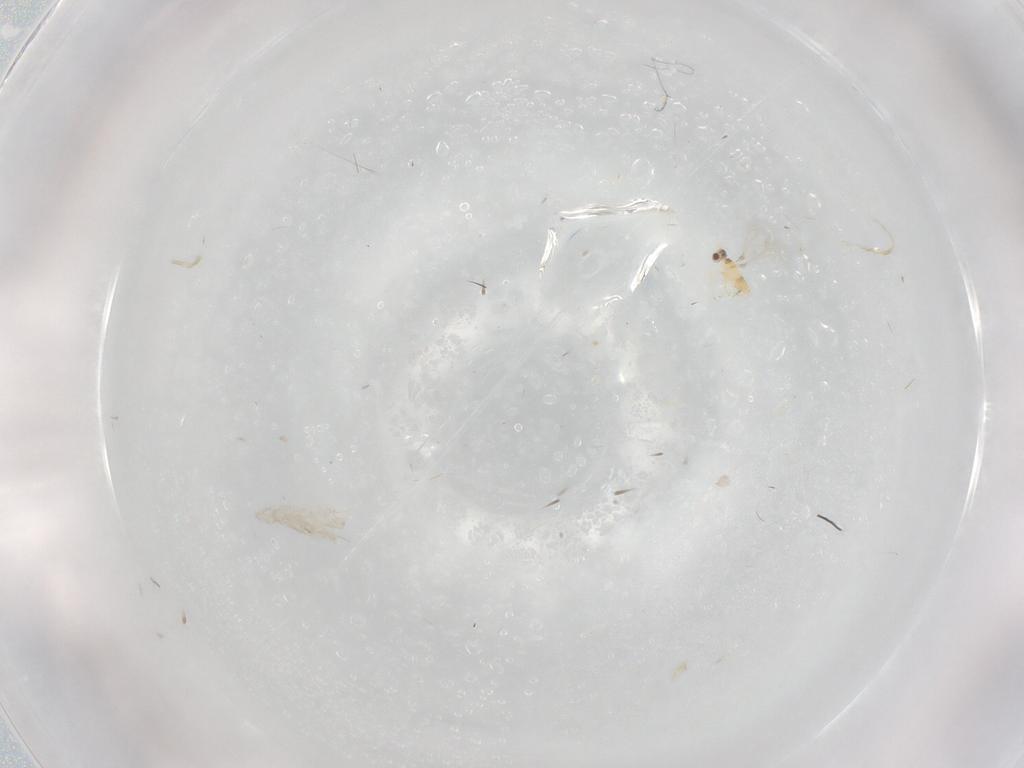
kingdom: Animalia
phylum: Arthropoda
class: Insecta
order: Hymenoptera
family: Mymaridae
